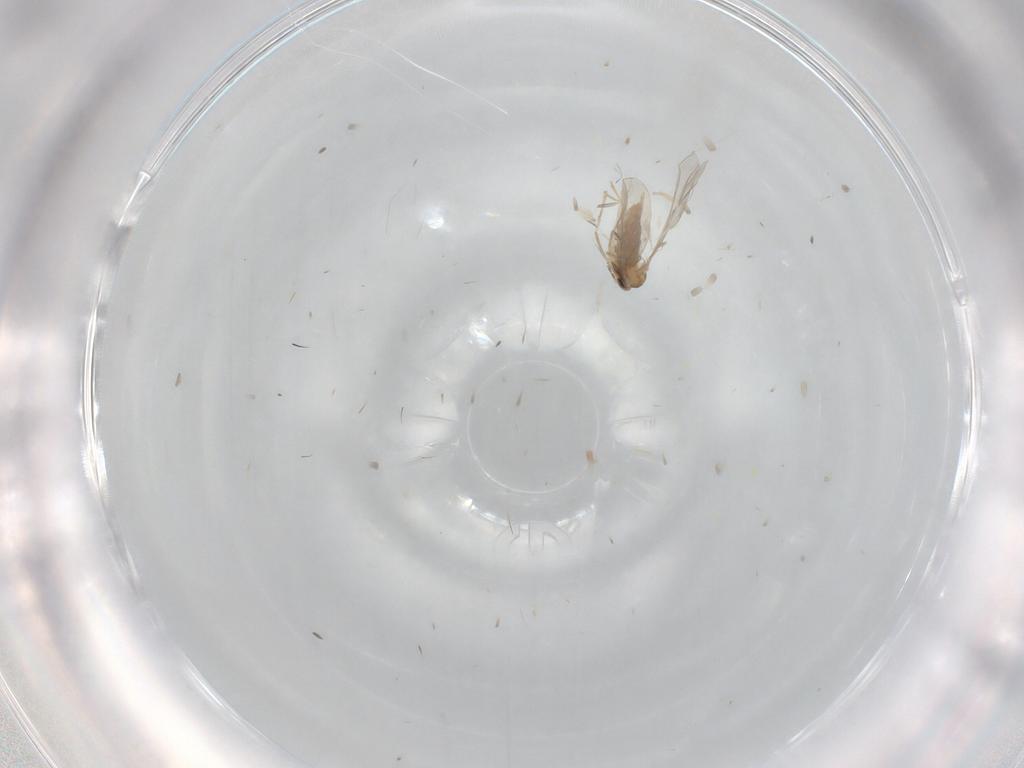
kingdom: Animalia
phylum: Arthropoda
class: Insecta
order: Diptera
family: Cecidomyiidae
